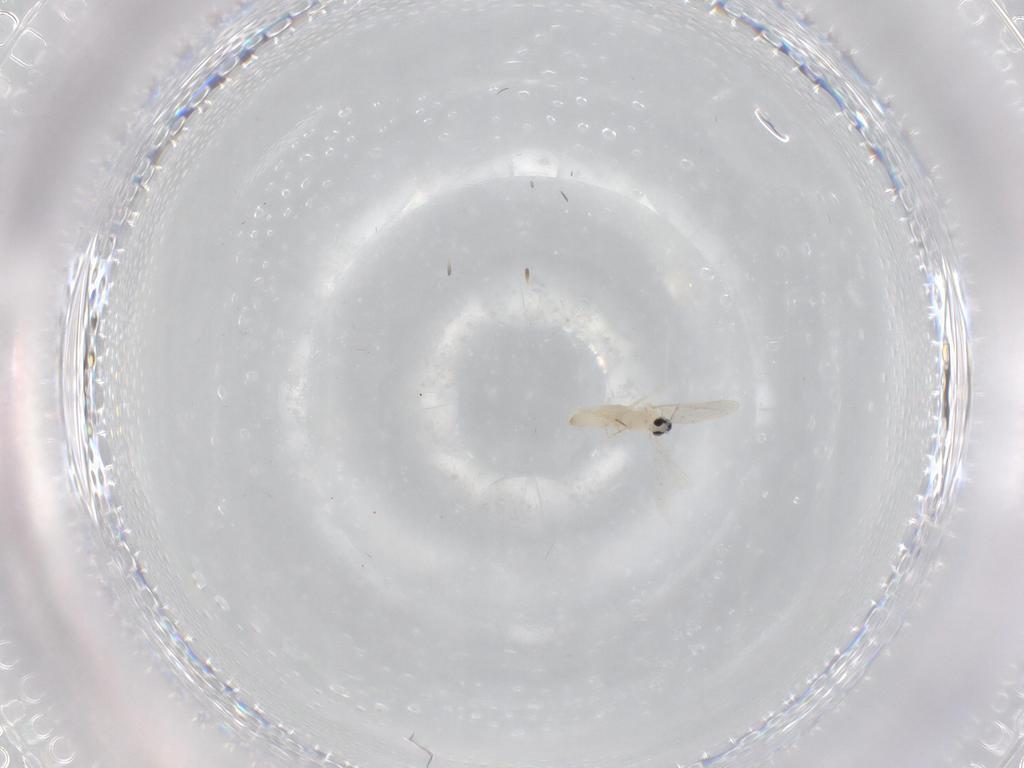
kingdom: Animalia
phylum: Arthropoda
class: Insecta
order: Diptera
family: Cecidomyiidae
